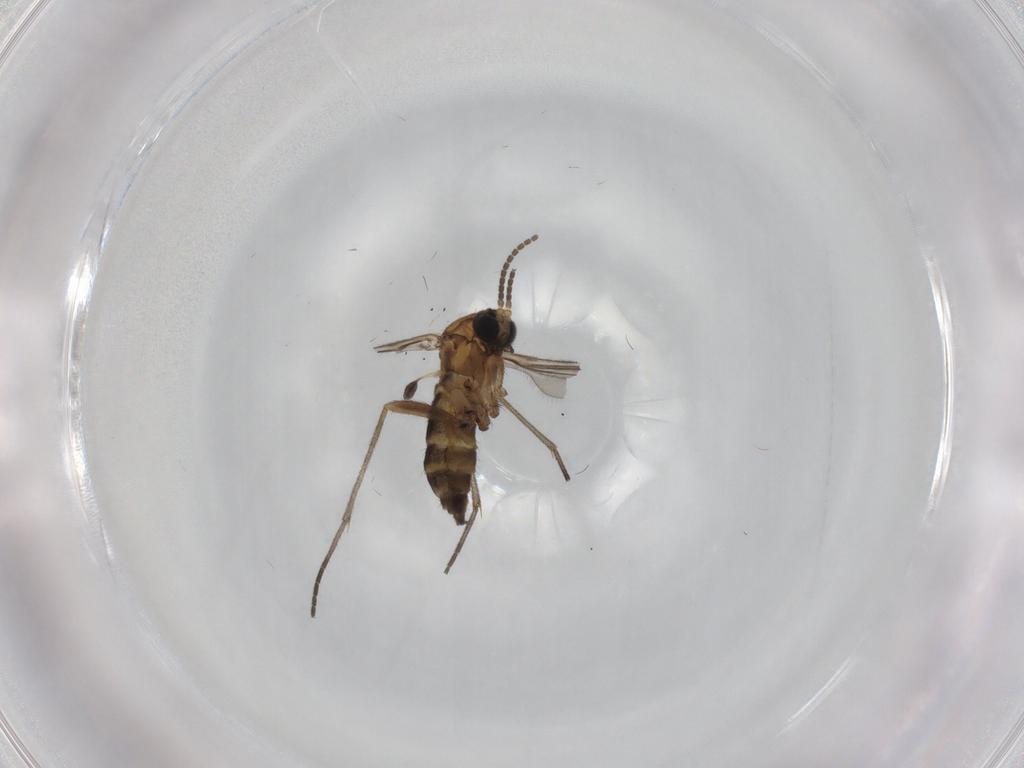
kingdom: Animalia
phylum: Arthropoda
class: Insecta
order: Diptera
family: Sciaridae
